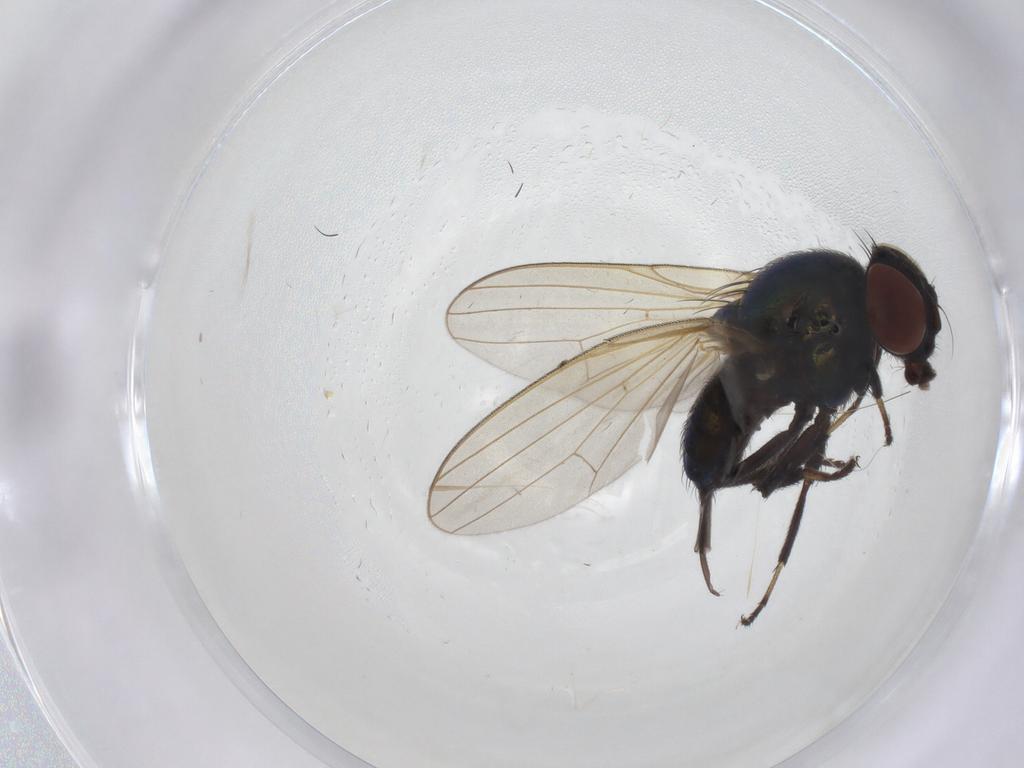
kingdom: Animalia
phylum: Arthropoda
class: Insecta
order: Diptera
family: Lonchaeidae
